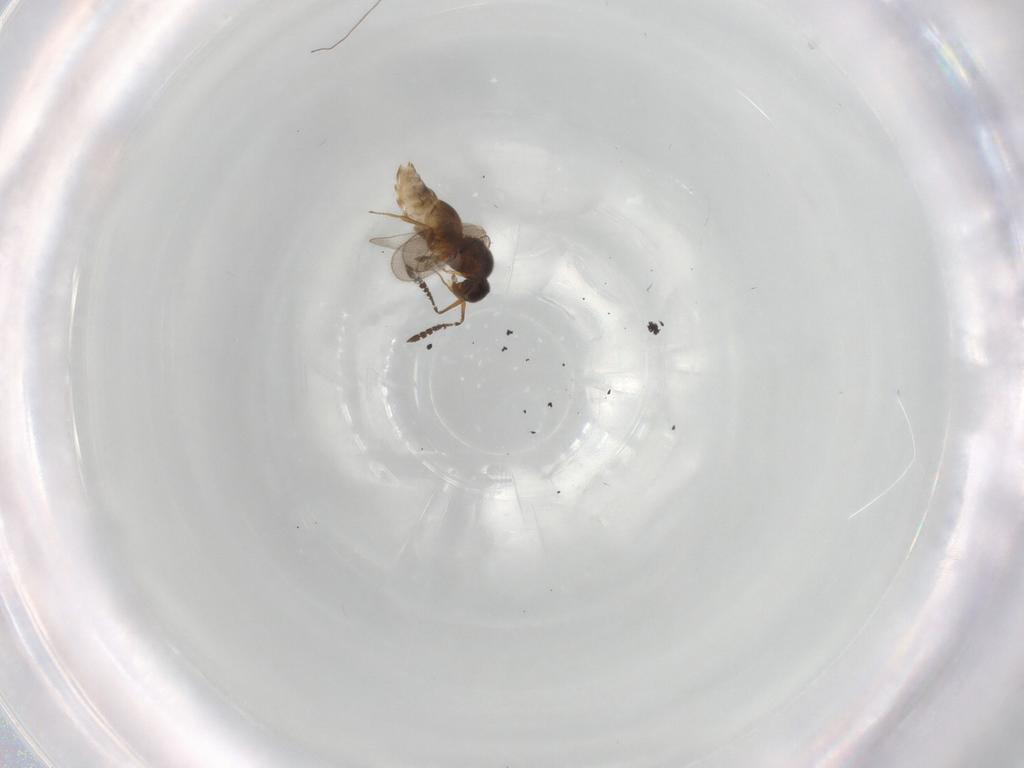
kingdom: Animalia
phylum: Arthropoda
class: Insecta
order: Hymenoptera
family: Ceraphronidae
